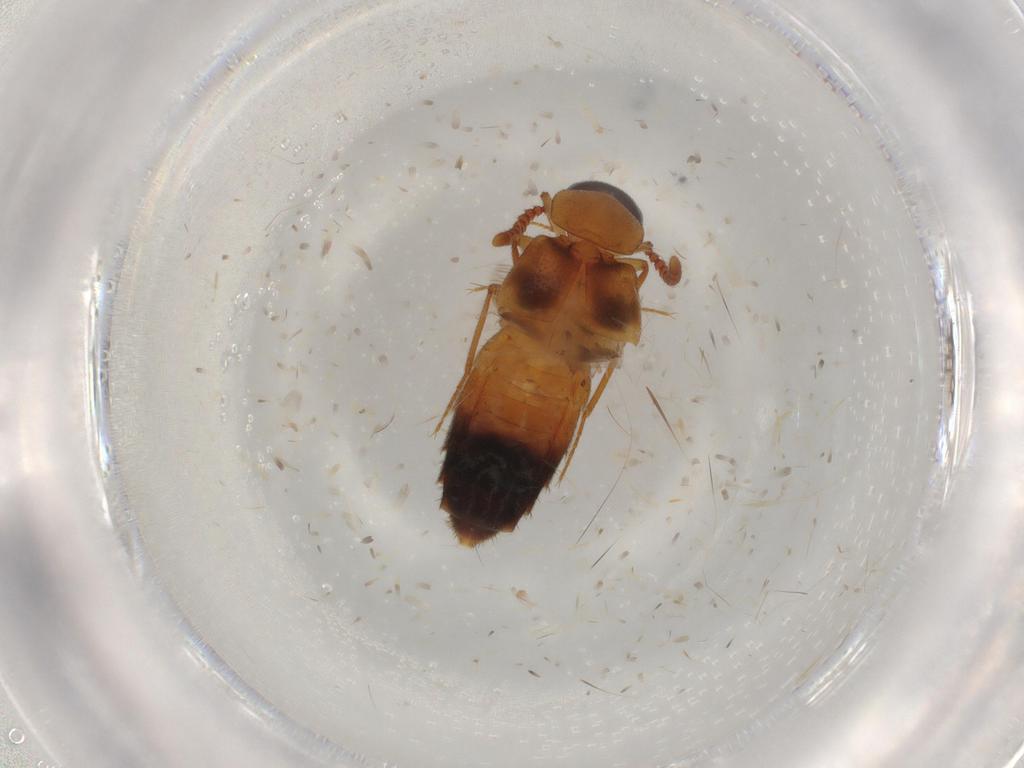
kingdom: Animalia
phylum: Arthropoda
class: Insecta
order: Coleoptera
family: Staphylinidae
